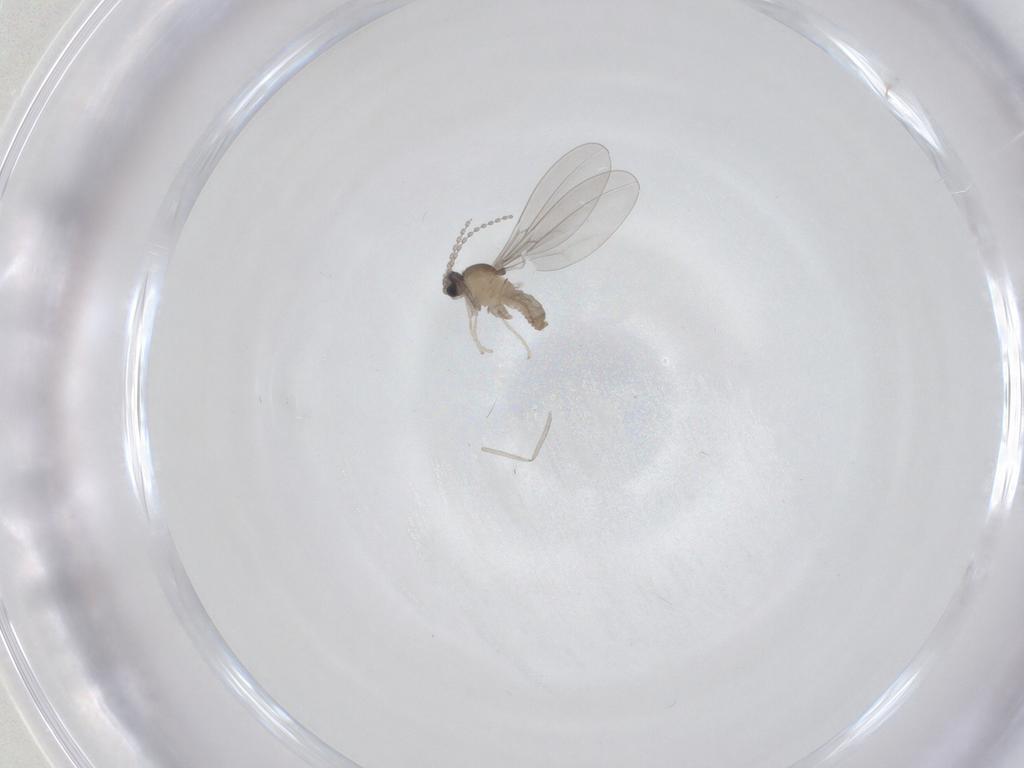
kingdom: Animalia
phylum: Arthropoda
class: Insecta
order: Diptera
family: Cecidomyiidae
